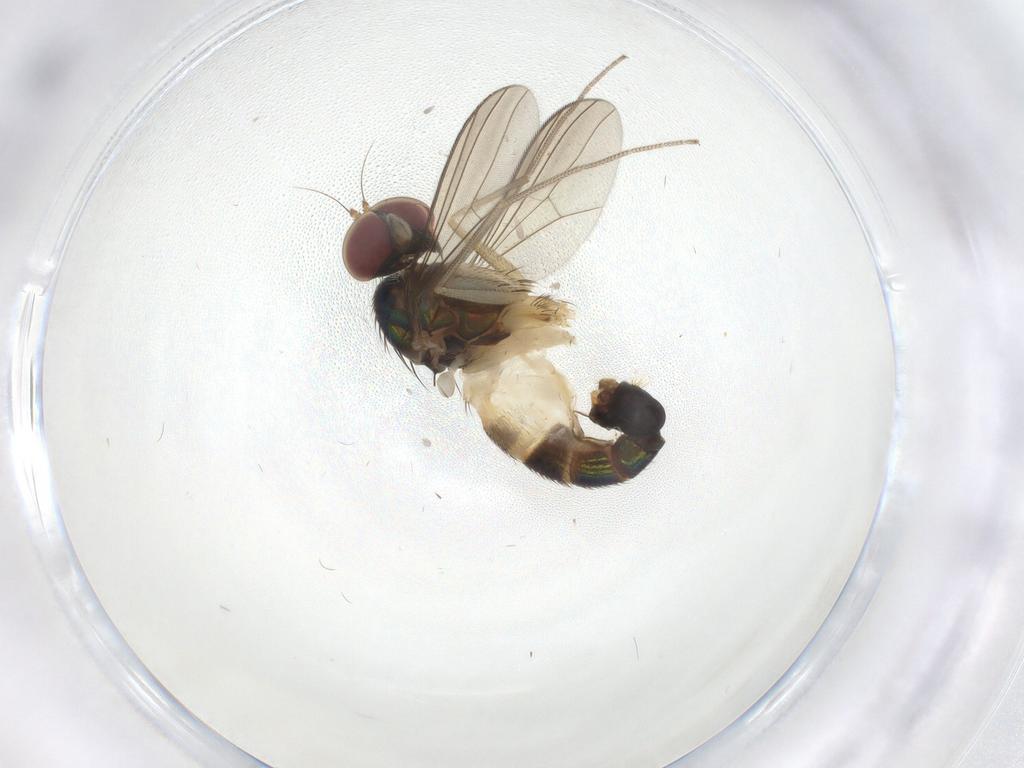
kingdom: Animalia
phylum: Arthropoda
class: Insecta
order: Diptera
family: Dolichopodidae
